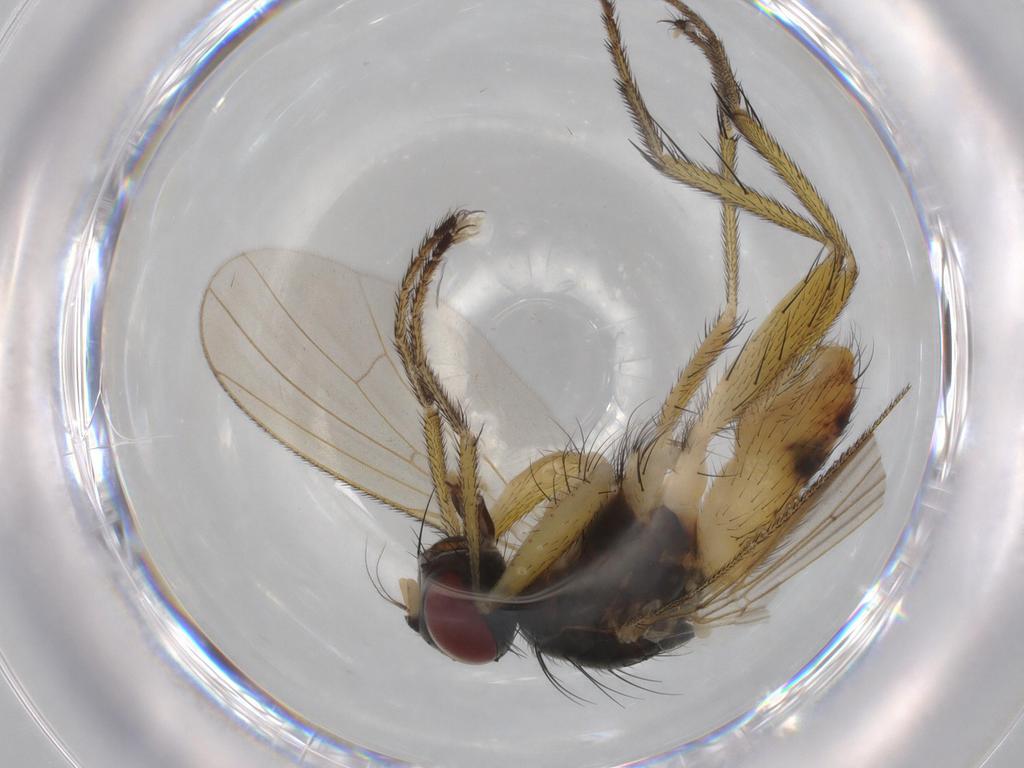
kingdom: Animalia
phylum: Arthropoda
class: Insecta
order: Diptera
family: Muscidae
